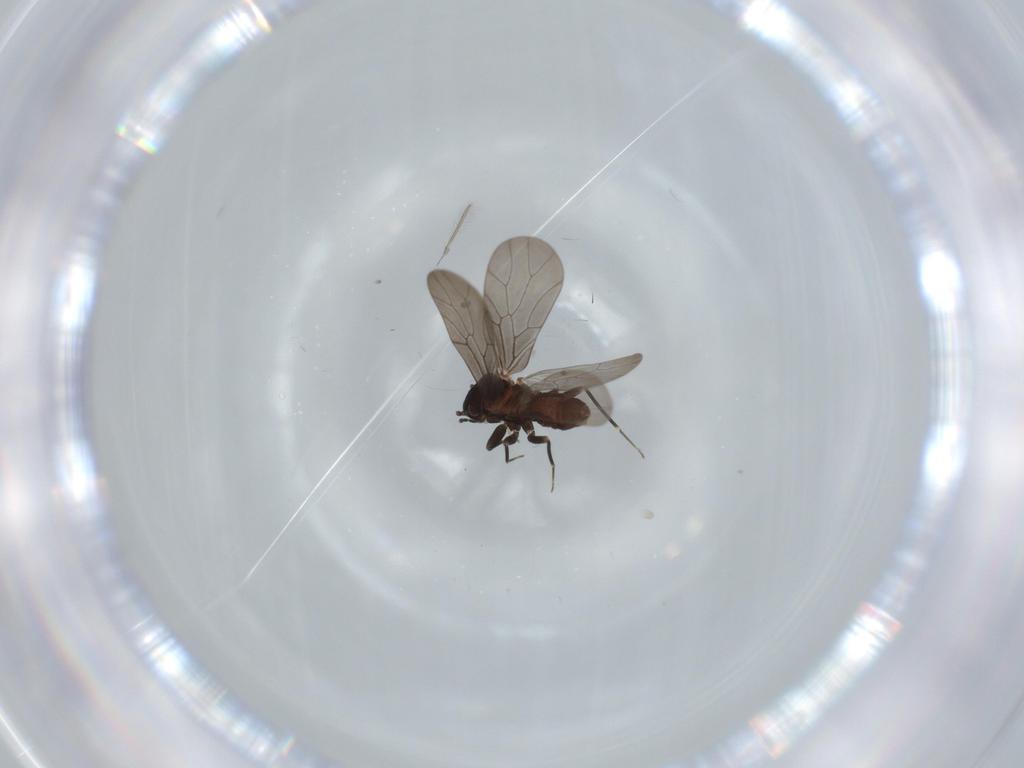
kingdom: Animalia
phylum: Arthropoda
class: Insecta
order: Psocodea
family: Lepidopsocidae
